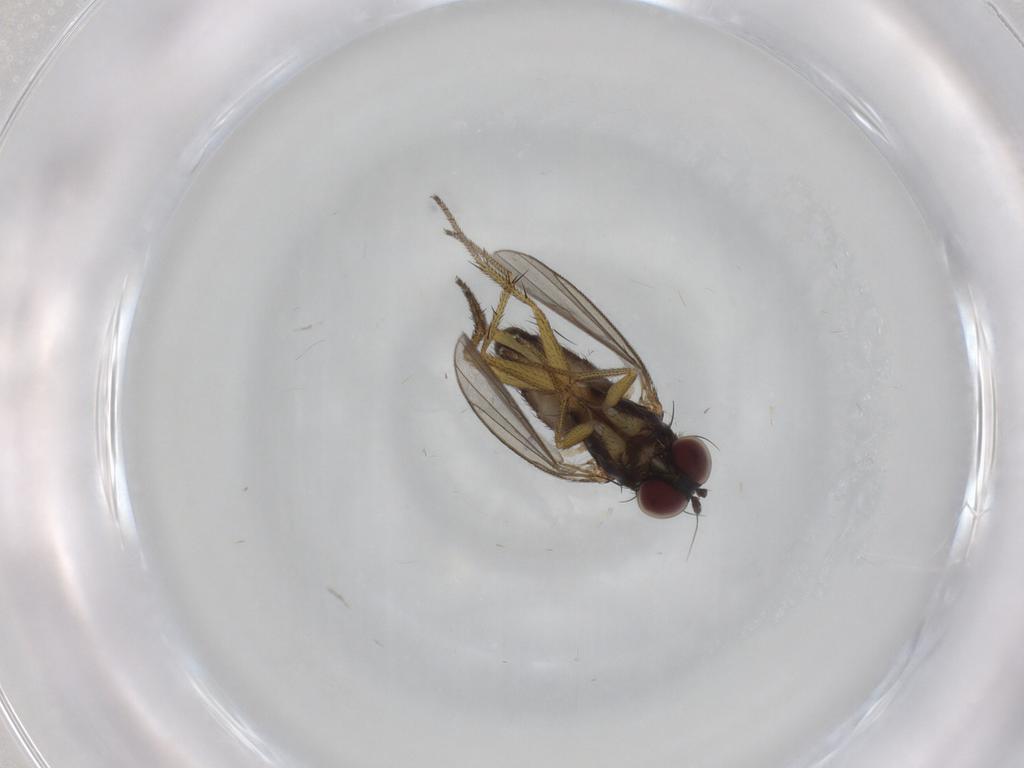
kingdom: Animalia
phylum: Arthropoda
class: Insecta
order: Diptera
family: Dolichopodidae
